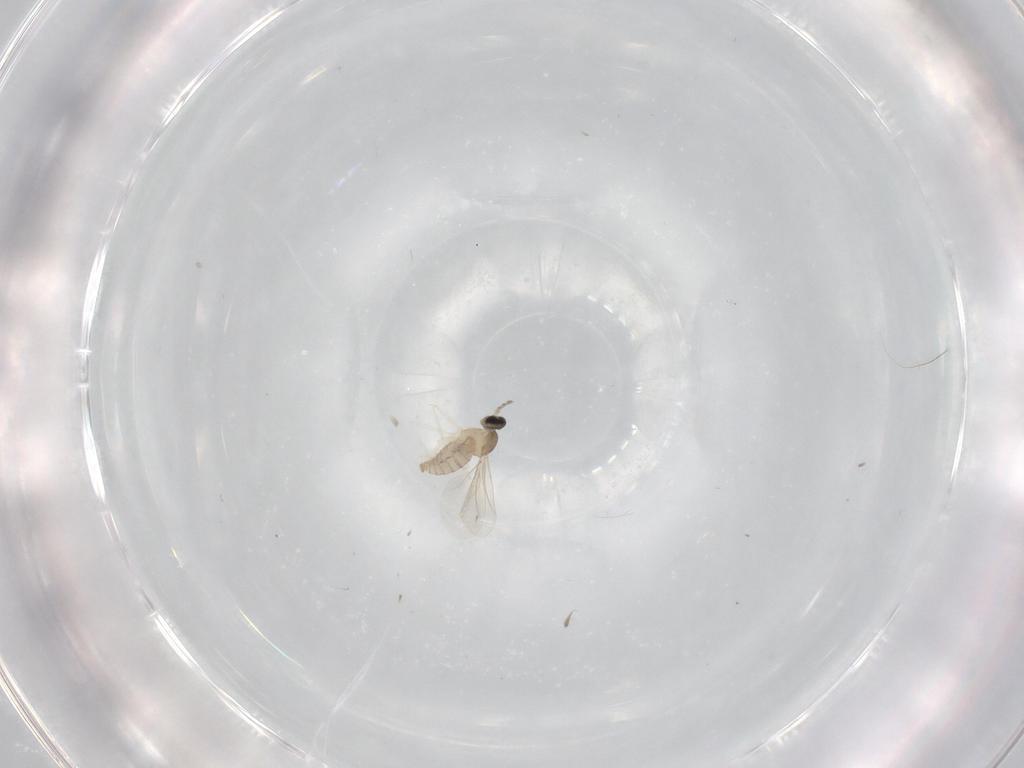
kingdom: Animalia
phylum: Arthropoda
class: Insecta
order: Diptera
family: Cecidomyiidae
